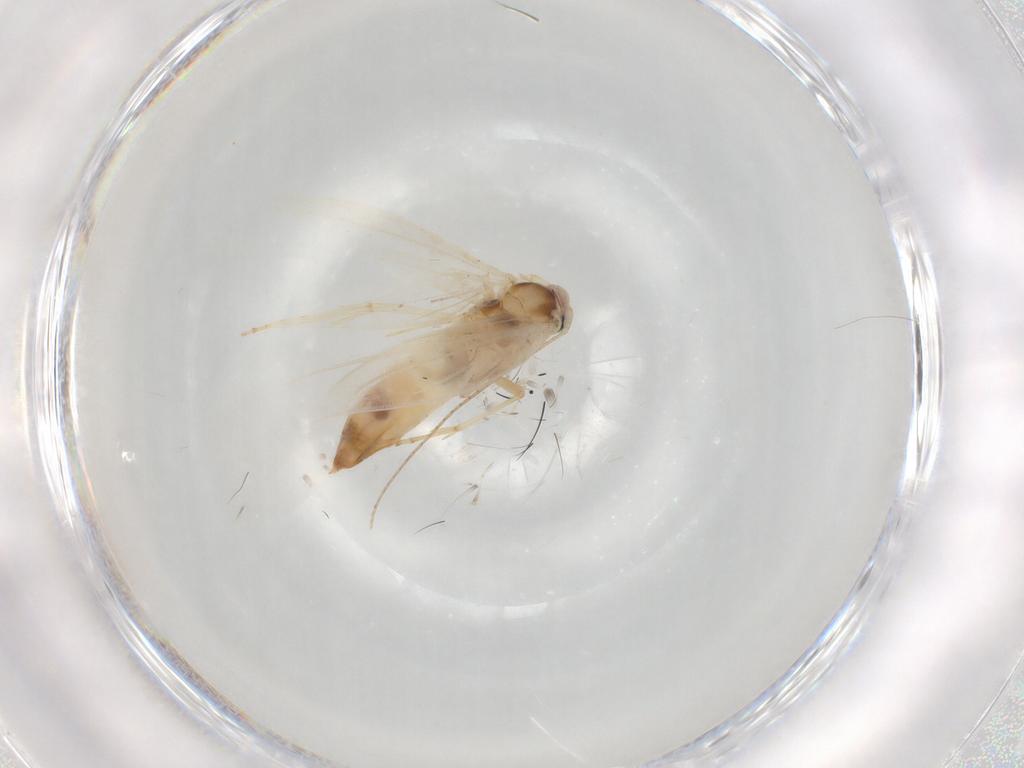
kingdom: Animalia
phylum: Arthropoda
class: Insecta
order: Lepidoptera
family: Bucculatricidae
